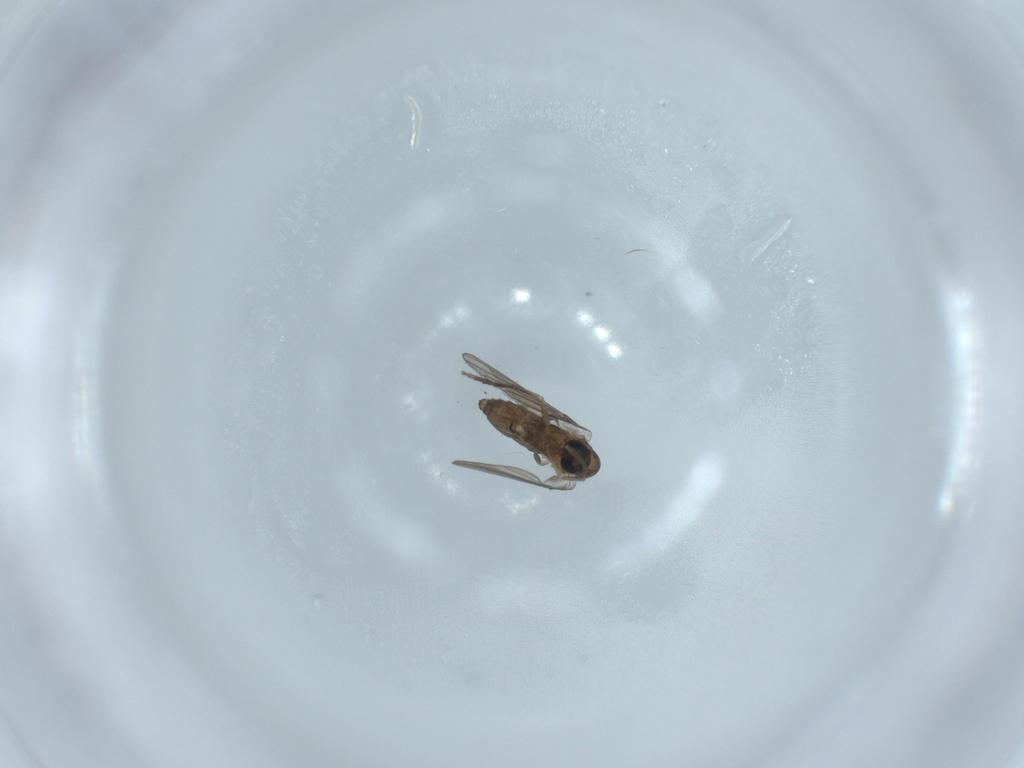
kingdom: Animalia
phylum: Arthropoda
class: Insecta
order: Diptera
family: Psychodidae
